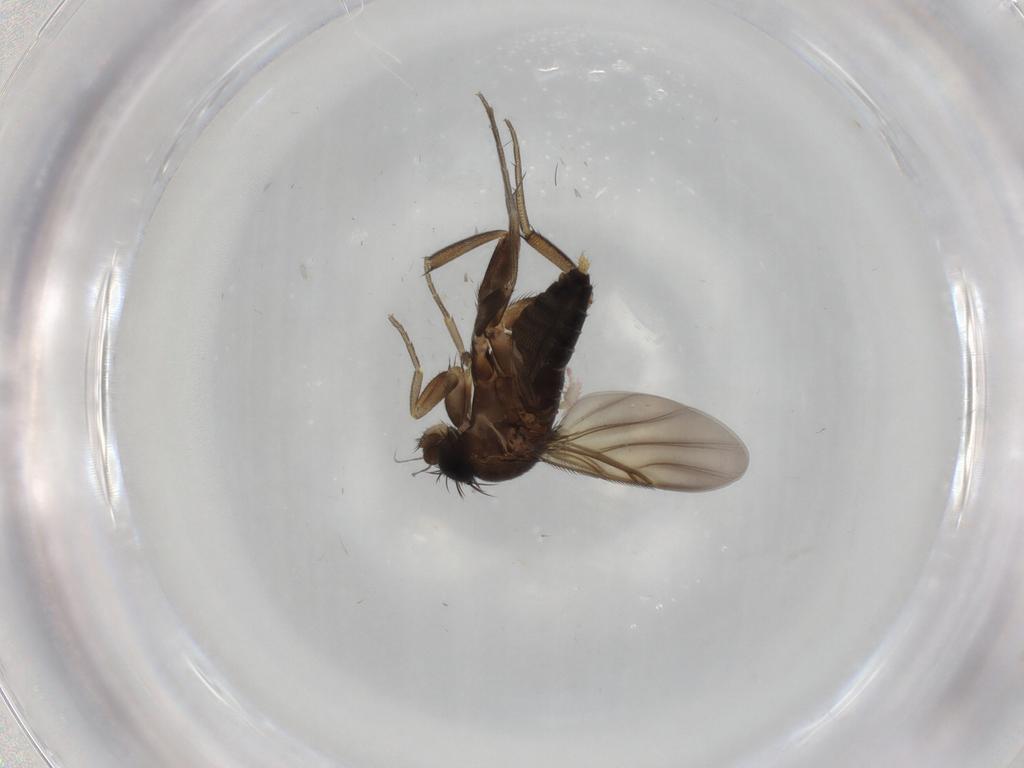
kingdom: Animalia
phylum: Arthropoda
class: Insecta
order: Diptera
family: Phoridae
